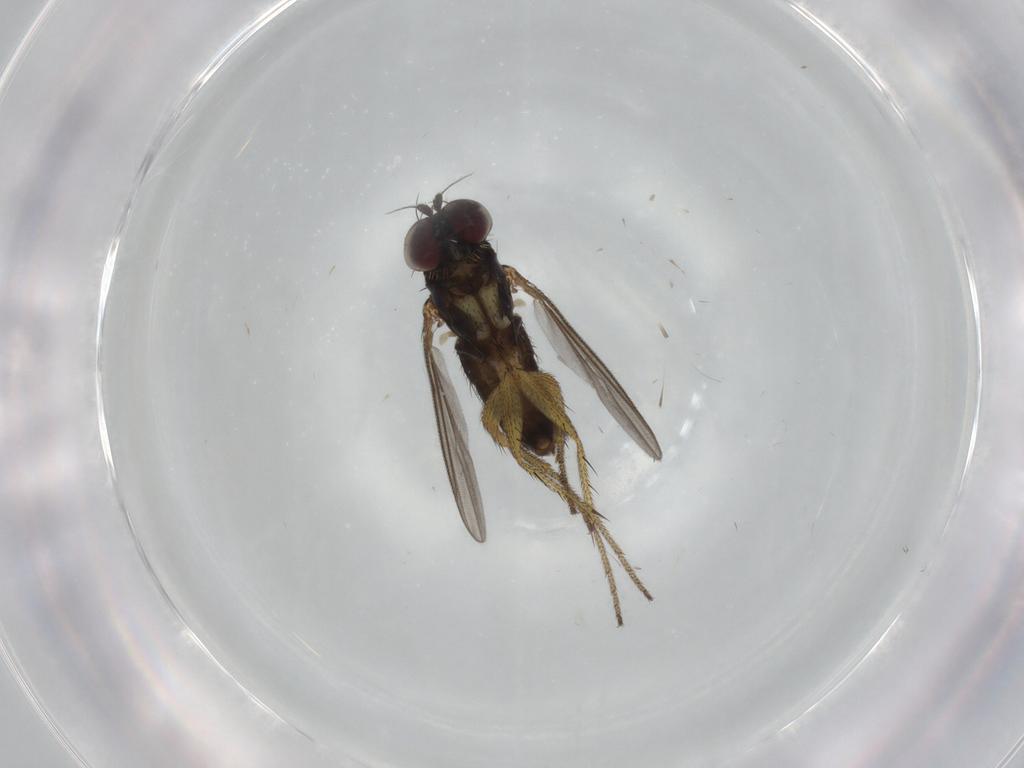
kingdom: Animalia
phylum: Arthropoda
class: Insecta
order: Diptera
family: Dolichopodidae
